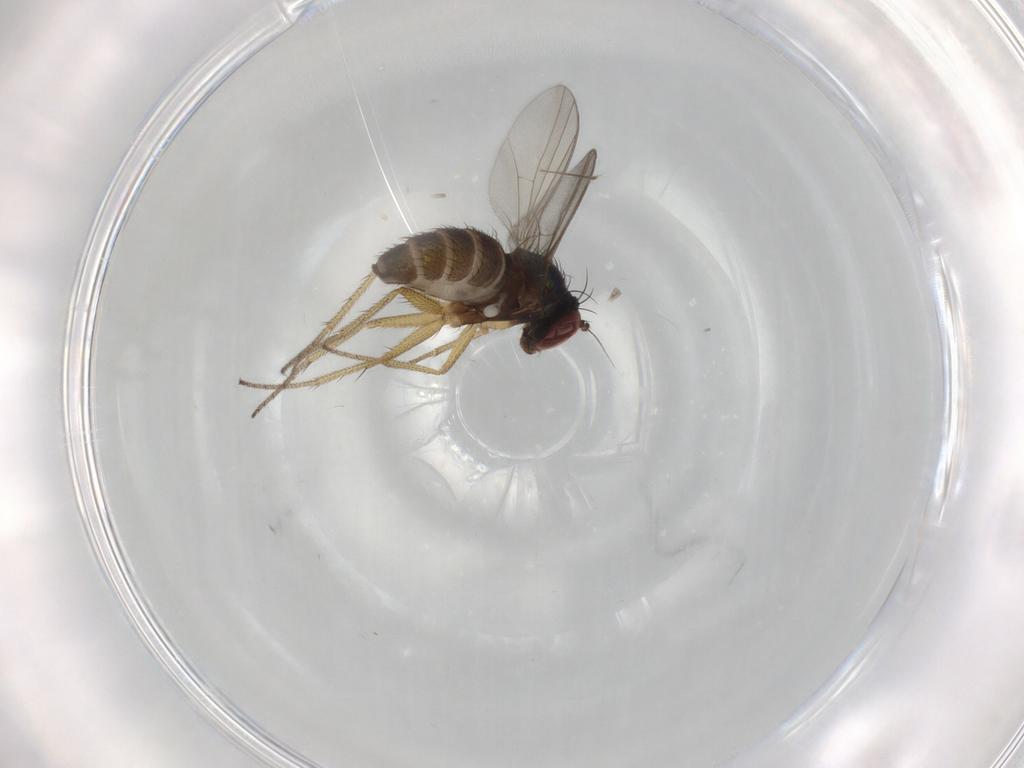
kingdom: Animalia
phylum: Arthropoda
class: Insecta
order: Diptera
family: Dolichopodidae
